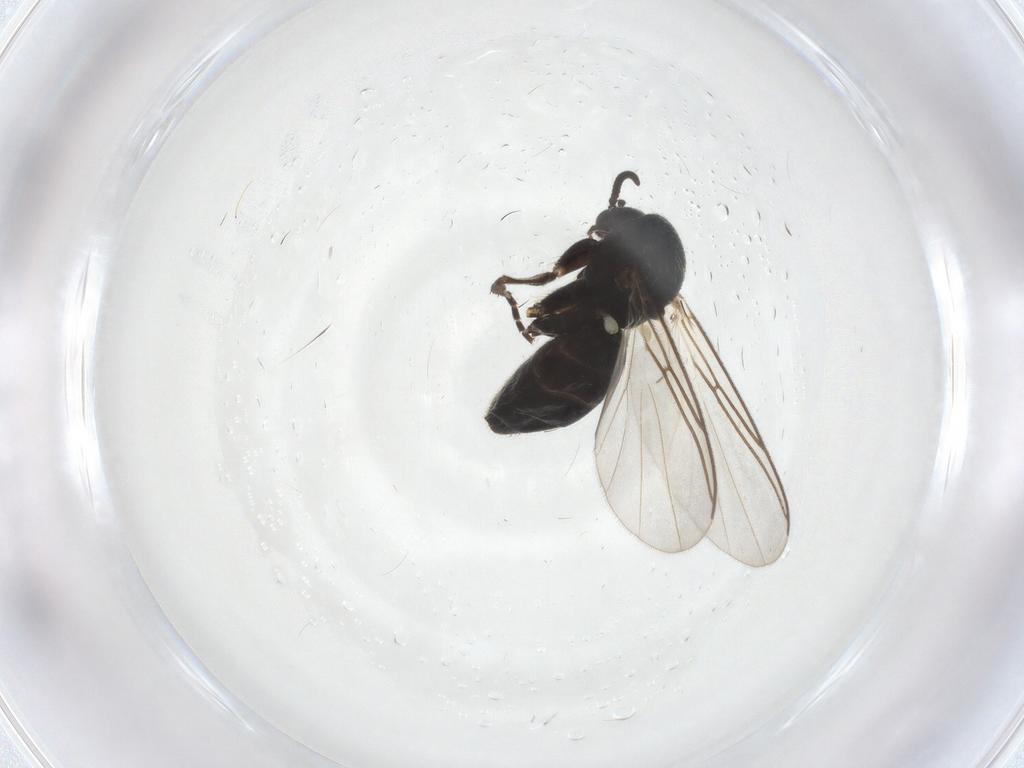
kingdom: Animalia
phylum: Arthropoda
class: Insecta
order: Diptera
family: Mycetophilidae
